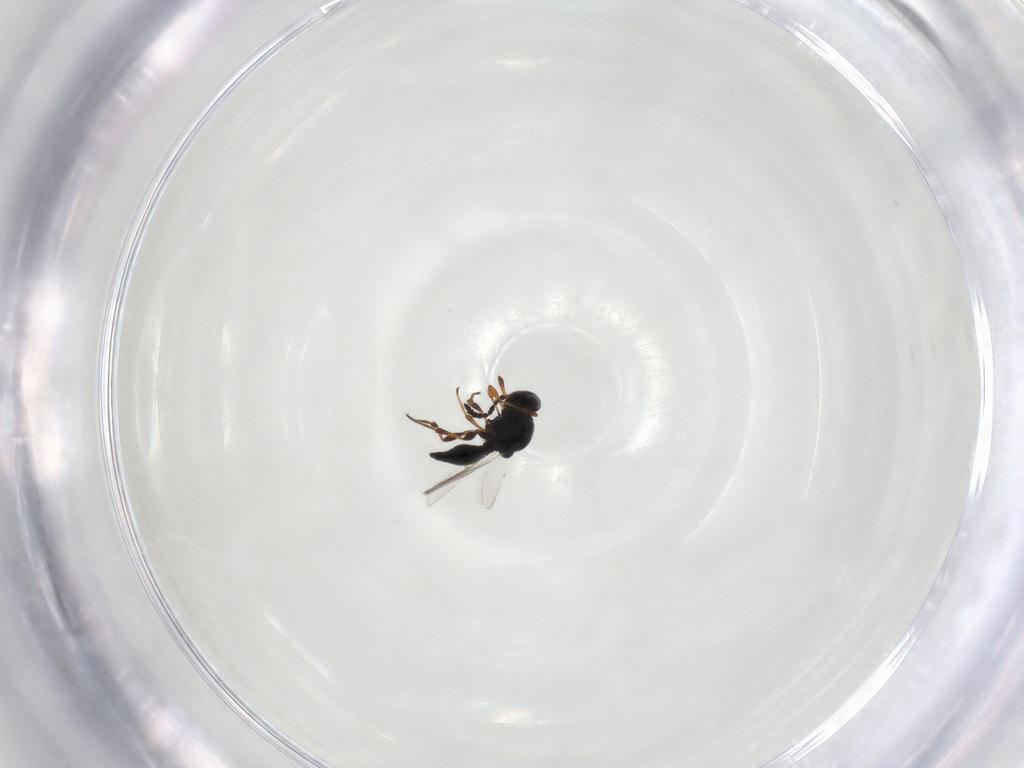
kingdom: Animalia
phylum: Arthropoda
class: Insecta
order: Hymenoptera
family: Platygastridae
